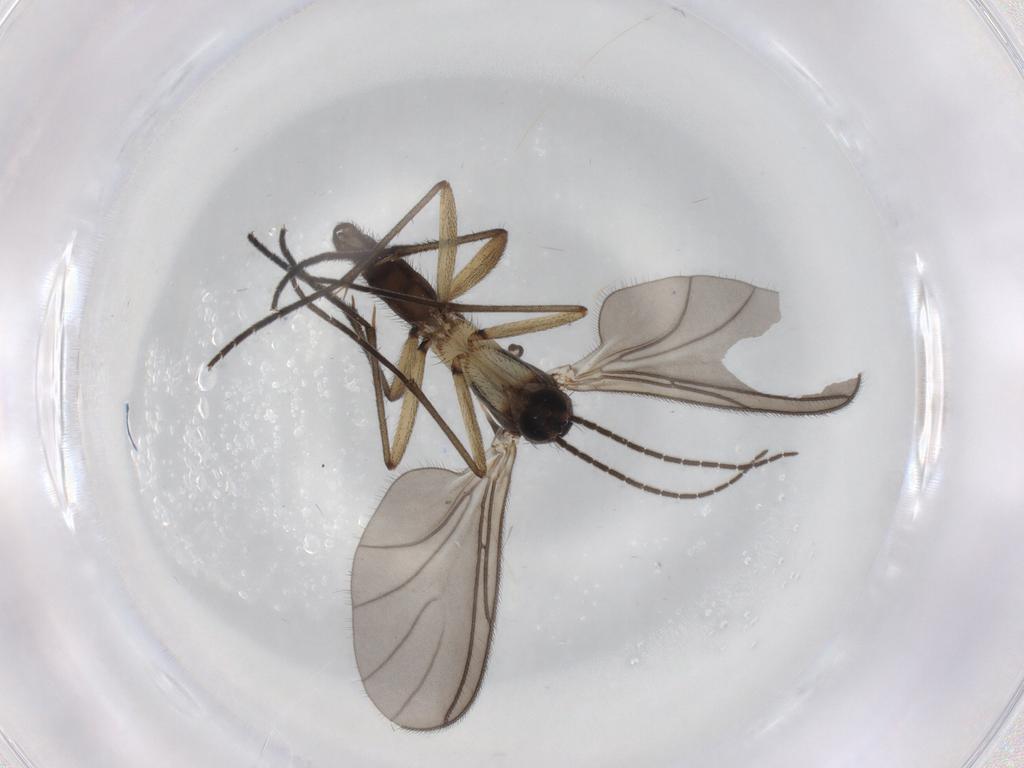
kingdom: Animalia
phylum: Arthropoda
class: Insecta
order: Diptera
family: Sciaridae
